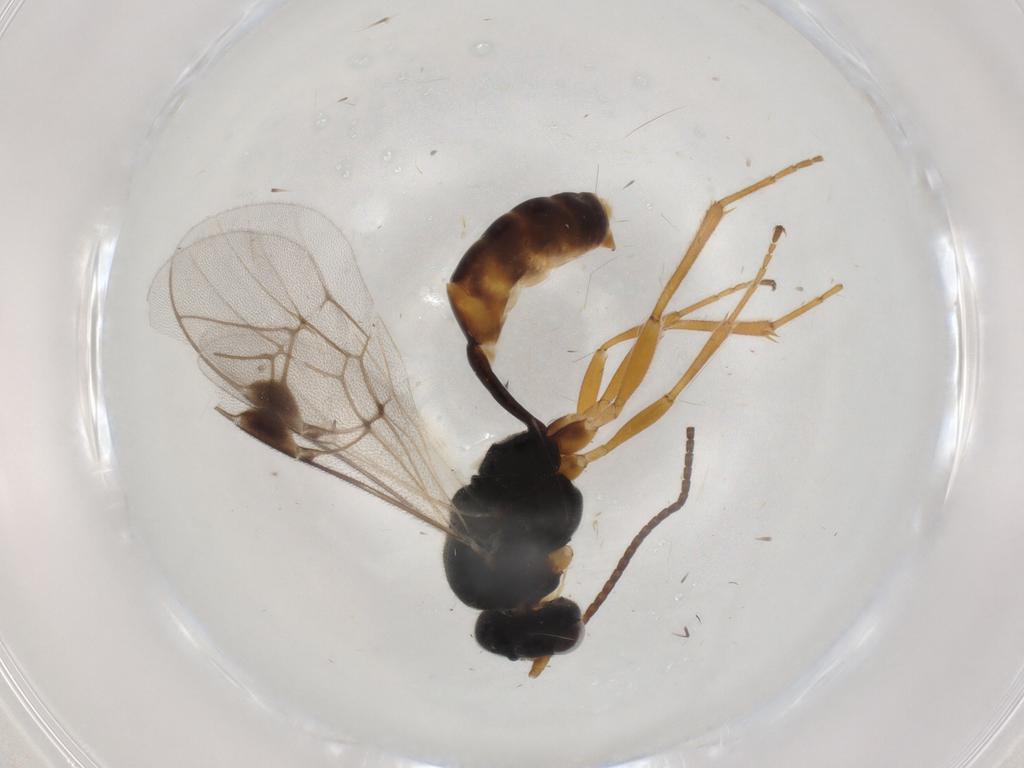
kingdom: Animalia
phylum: Arthropoda
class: Insecta
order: Hymenoptera
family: Ichneumonidae
